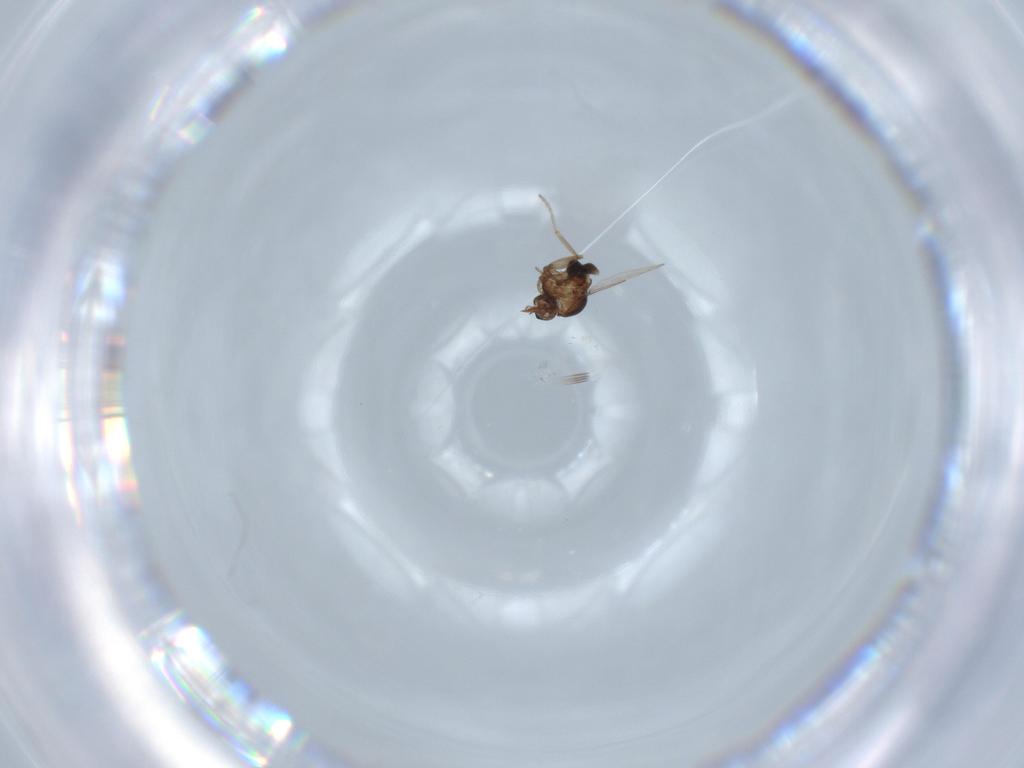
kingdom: Animalia
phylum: Arthropoda
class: Insecta
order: Diptera
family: Ceratopogonidae
